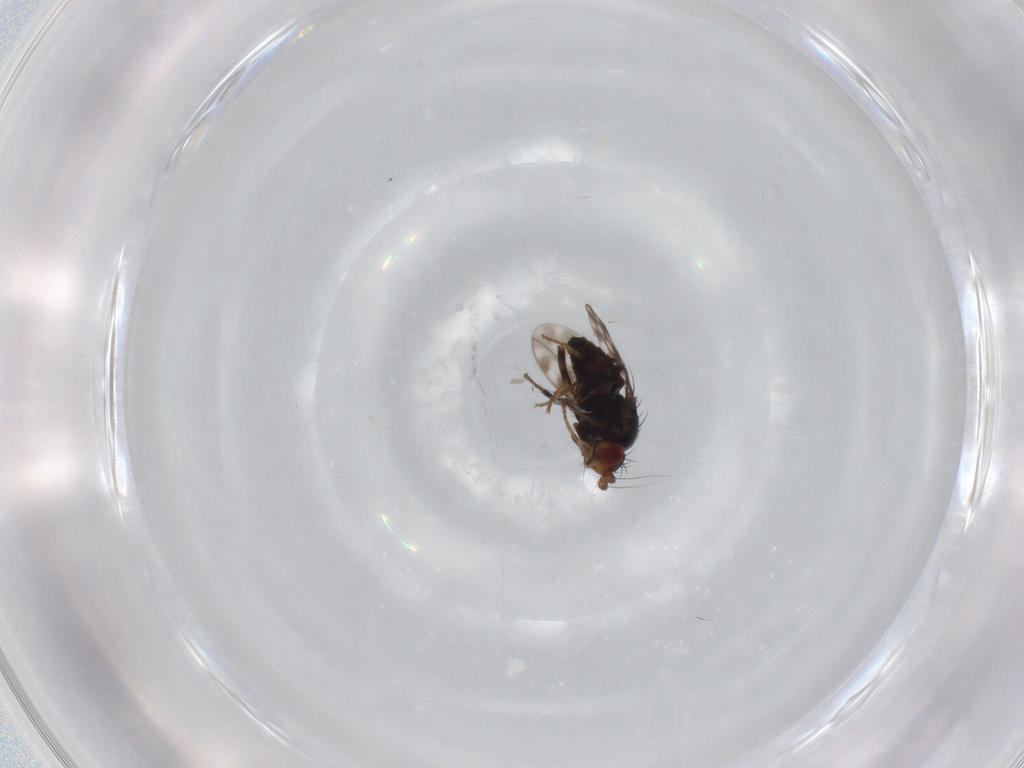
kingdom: Animalia
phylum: Arthropoda
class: Insecta
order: Diptera
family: Sphaeroceridae
